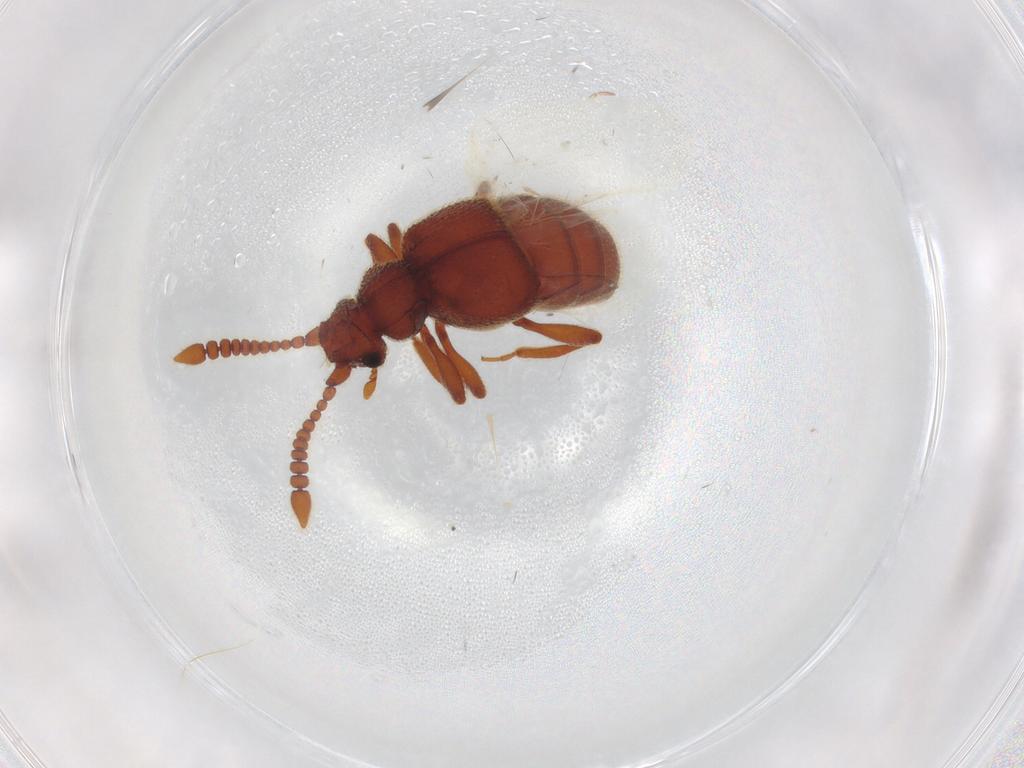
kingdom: Animalia
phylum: Arthropoda
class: Insecta
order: Coleoptera
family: Staphylinidae
